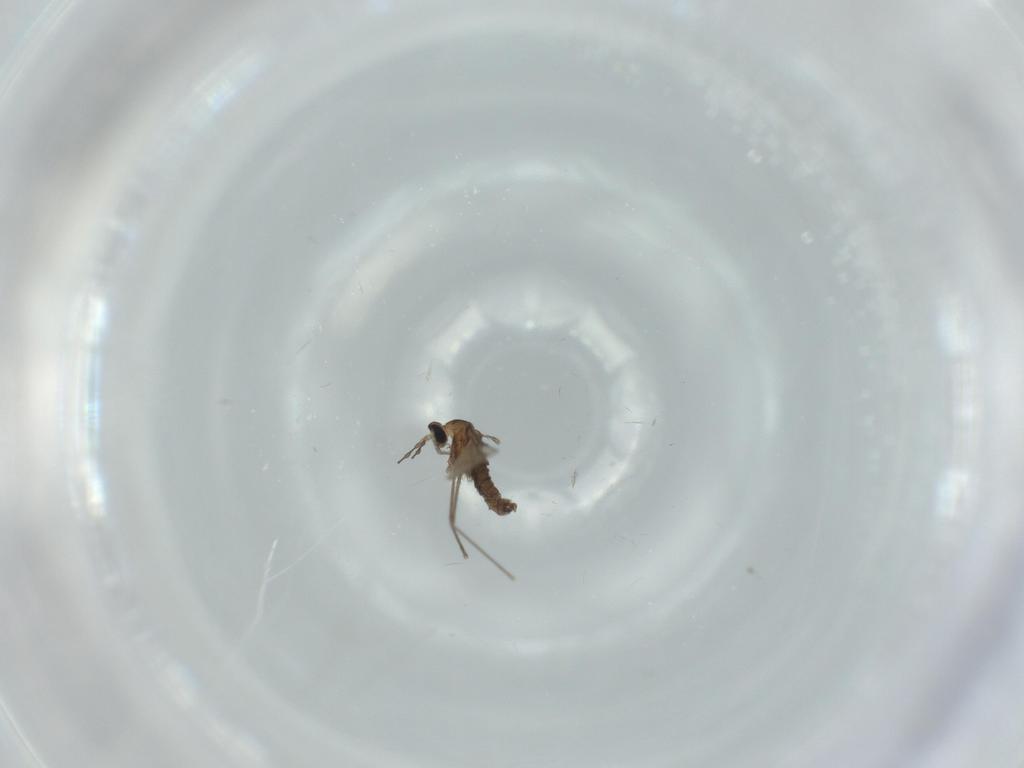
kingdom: Animalia
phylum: Arthropoda
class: Insecta
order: Diptera
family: Cecidomyiidae
